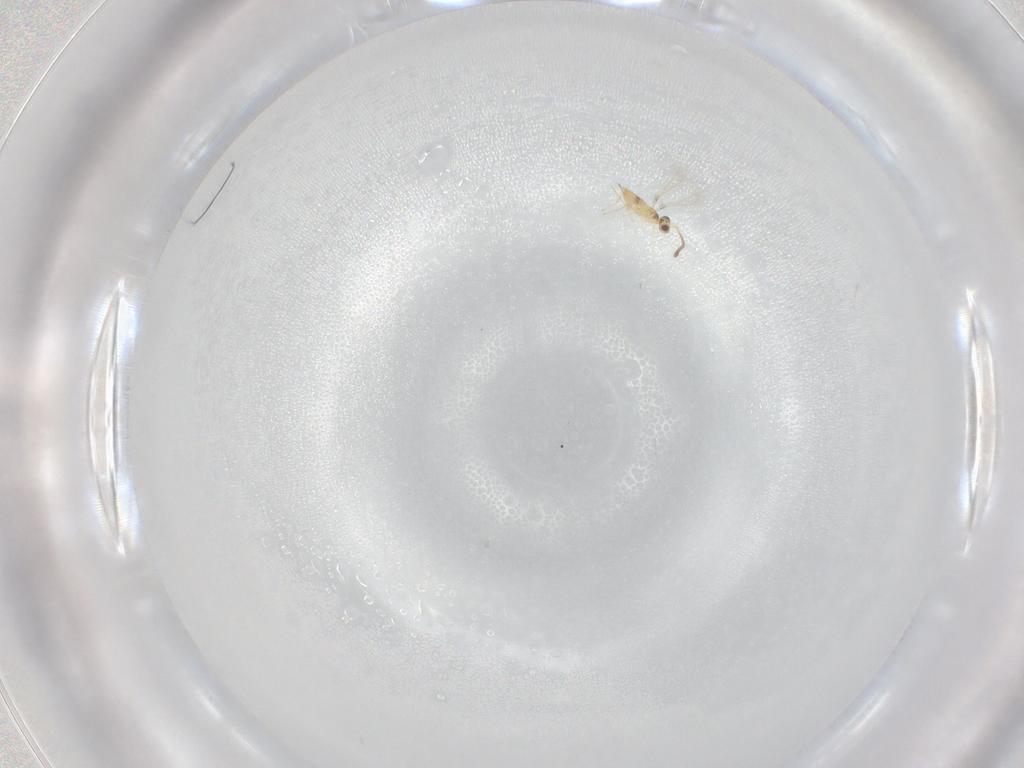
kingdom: Animalia
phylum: Arthropoda
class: Insecta
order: Hymenoptera
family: Mymaridae
